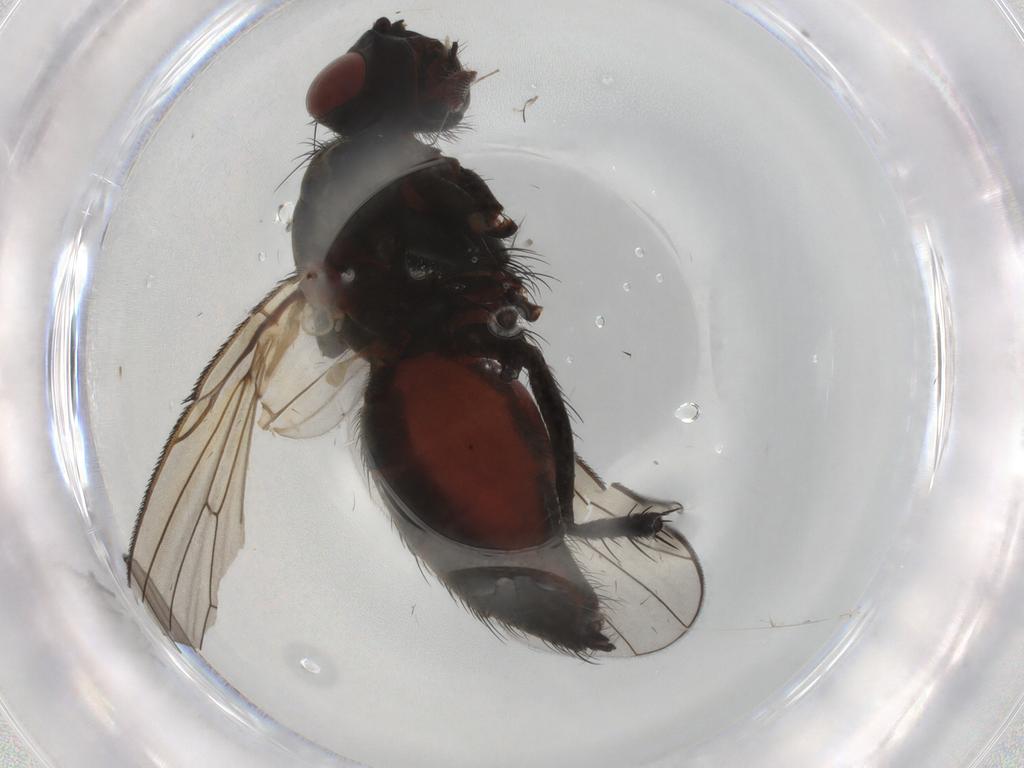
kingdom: Animalia
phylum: Arthropoda
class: Insecta
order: Diptera
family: Anthomyiidae
